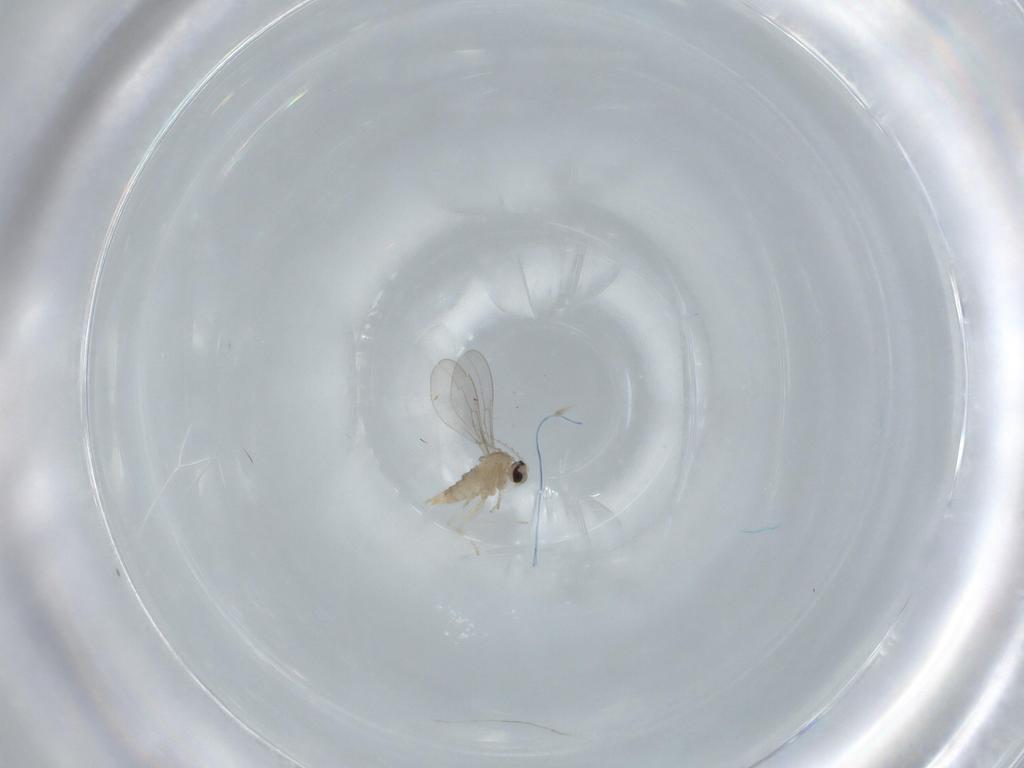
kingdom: Animalia
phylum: Arthropoda
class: Insecta
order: Diptera
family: Cecidomyiidae
